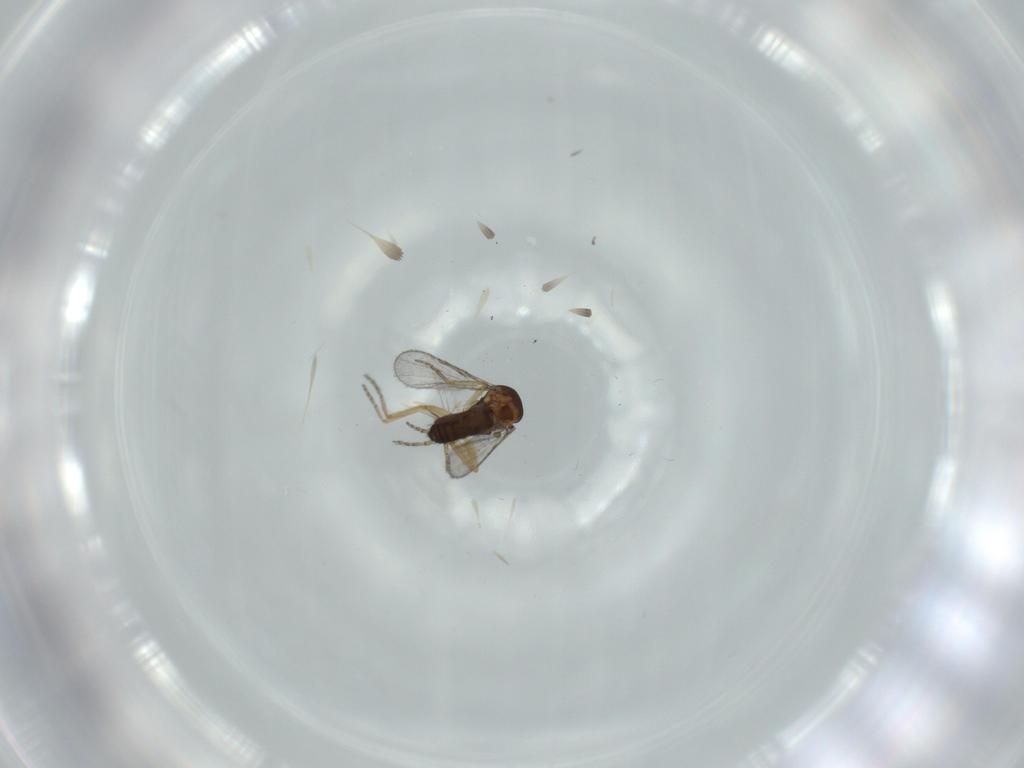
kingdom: Animalia
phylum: Arthropoda
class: Insecta
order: Diptera
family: Ceratopogonidae
